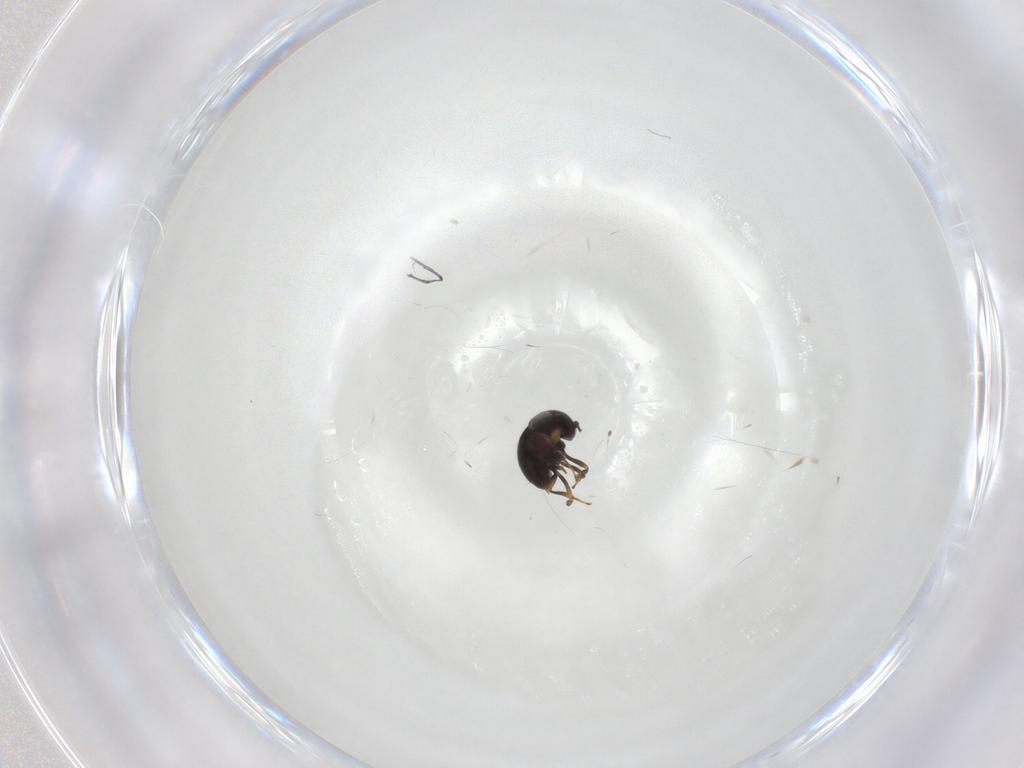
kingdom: Animalia
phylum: Arthropoda
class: Insecta
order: Hymenoptera
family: Scelionidae
